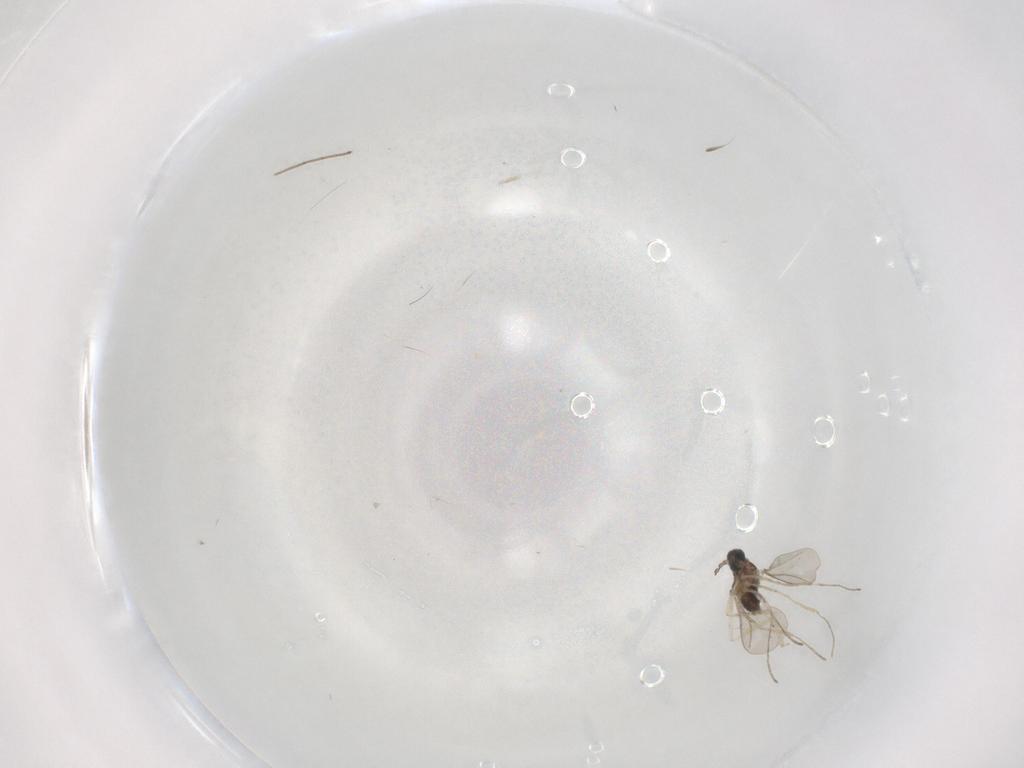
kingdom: Animalia
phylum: Arthropoda
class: Insecta
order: Diptera
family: Cecidomyiidae
